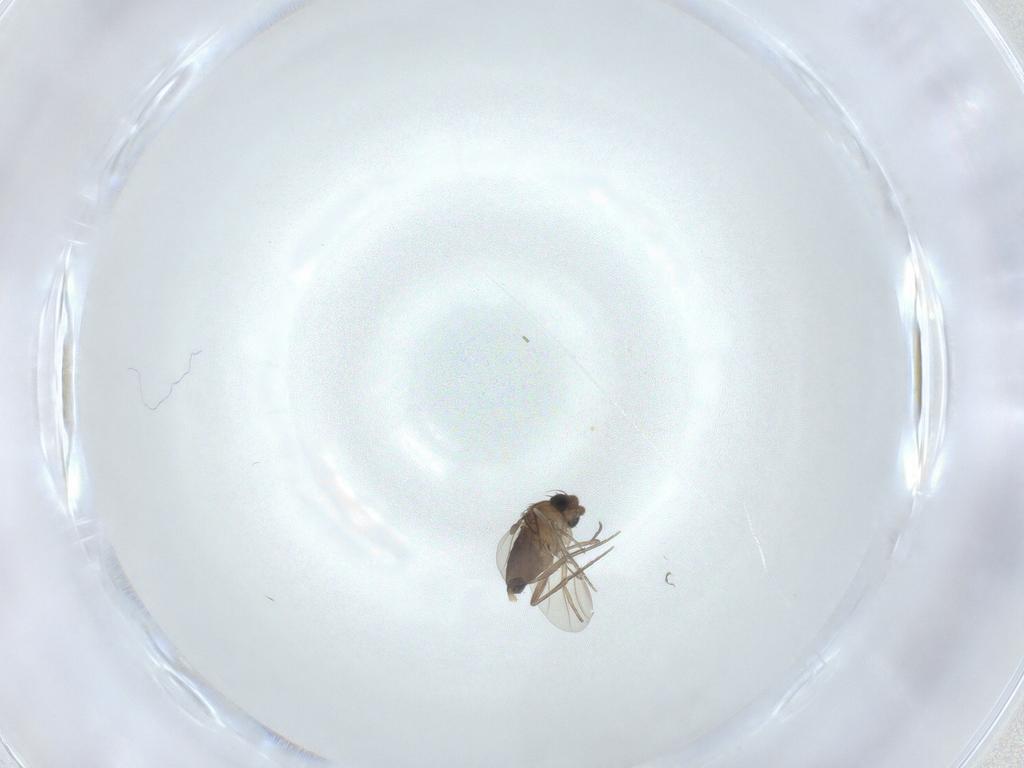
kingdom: Animalia
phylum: Arthropoda
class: Insecta
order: Diptera
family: Phoridae
